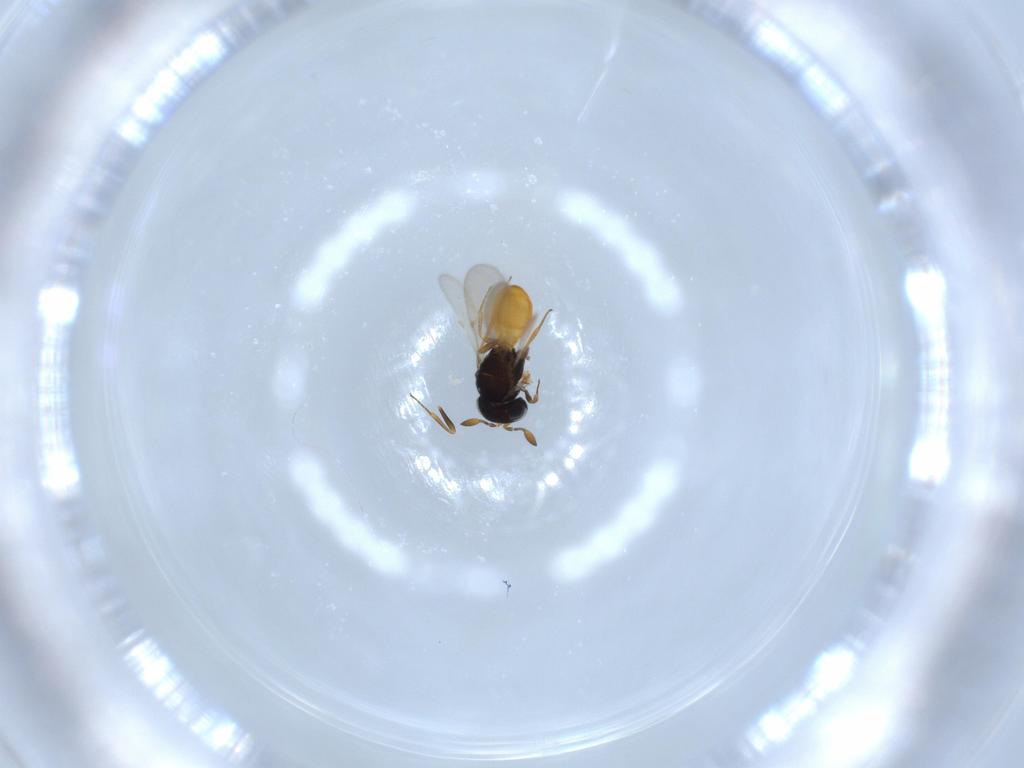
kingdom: Animalia
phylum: Arthropoda
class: Insecta
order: Hymenoptera
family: Scelionidae
